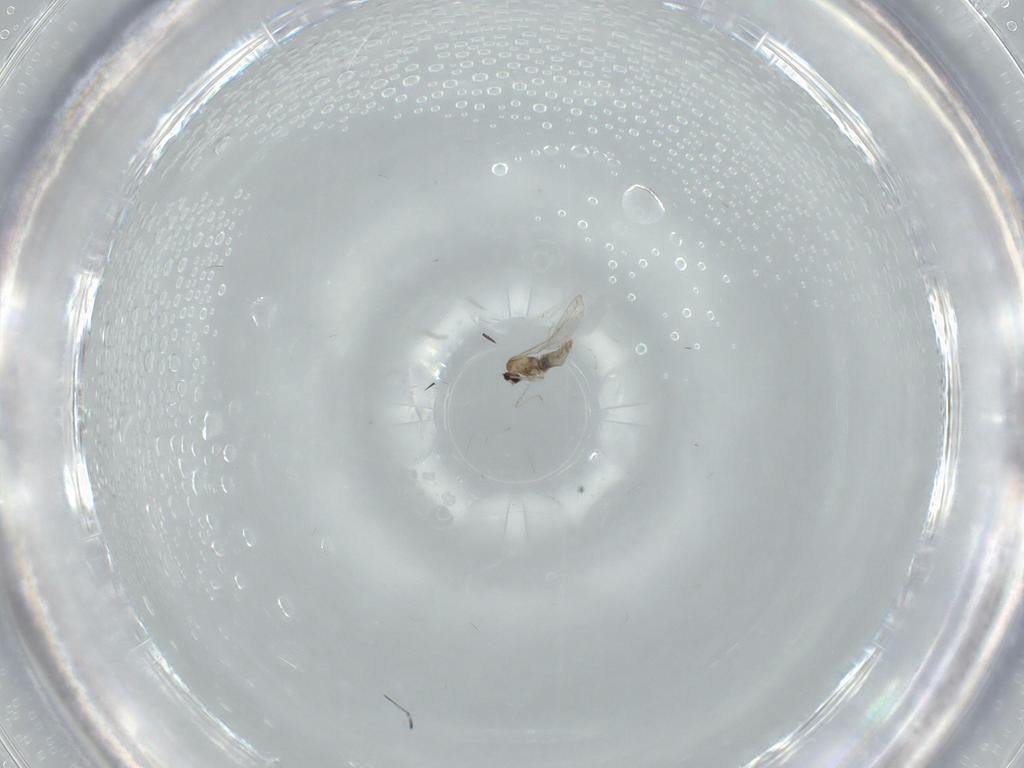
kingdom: Animalia
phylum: Arthropoda
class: Insecta
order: Diptera
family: Cecidomyiidae
